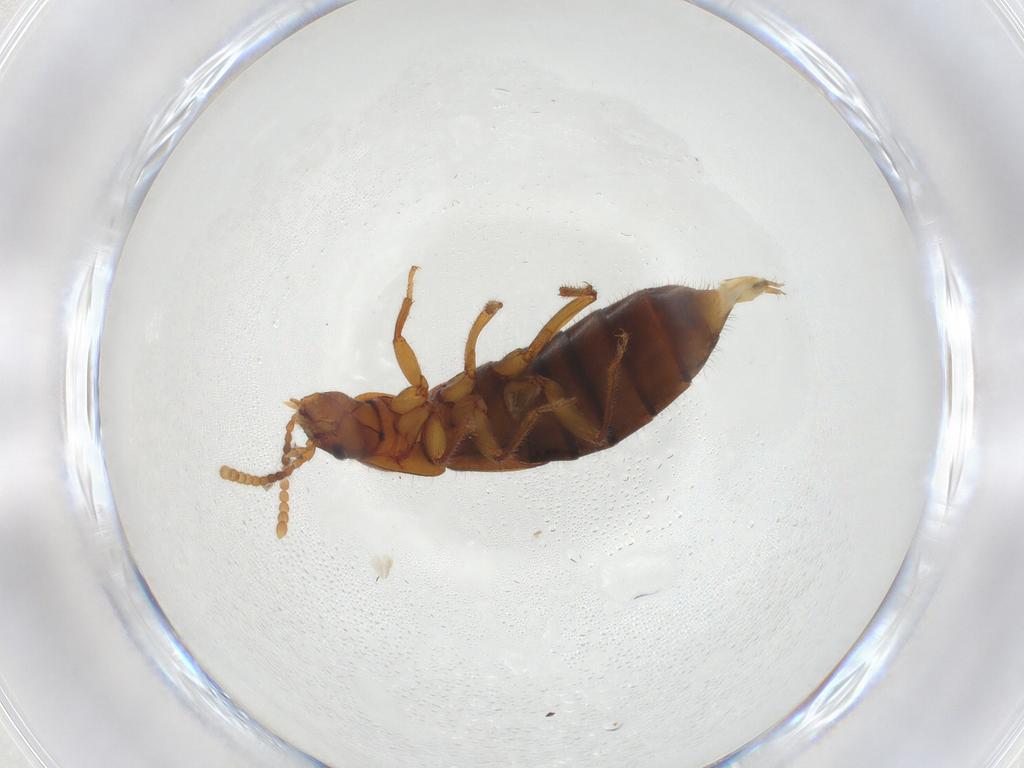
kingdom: Animalia
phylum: Arthropoda
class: Insecta
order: Coleoptera
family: Staphylinidae
